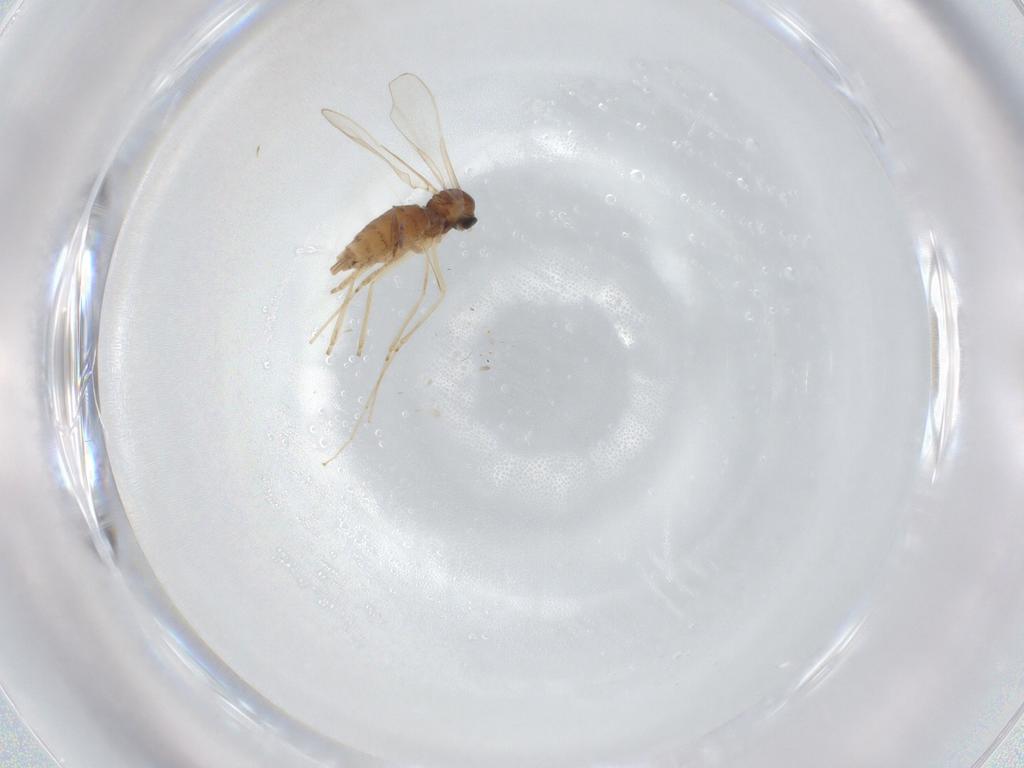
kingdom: Animalia
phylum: Arthropoda
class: Insecta
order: Diptera
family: Cecidomyiidae
